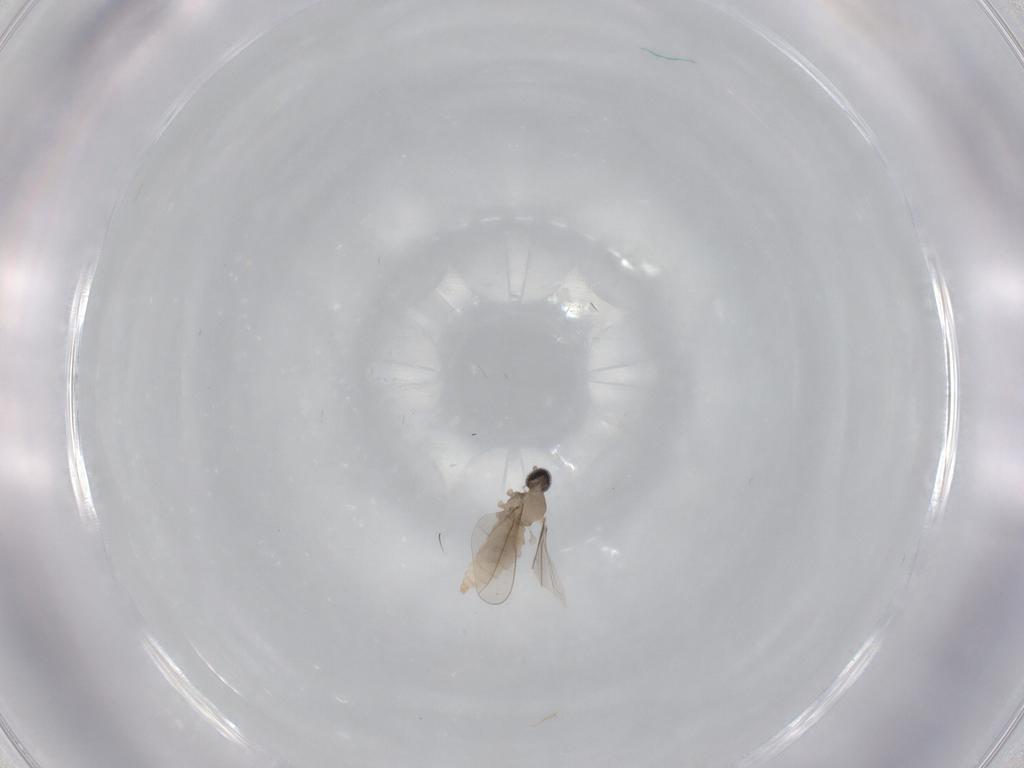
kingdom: Animalia
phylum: Arthropoda
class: Insecta
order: Diptera
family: Cecidomyiidae
